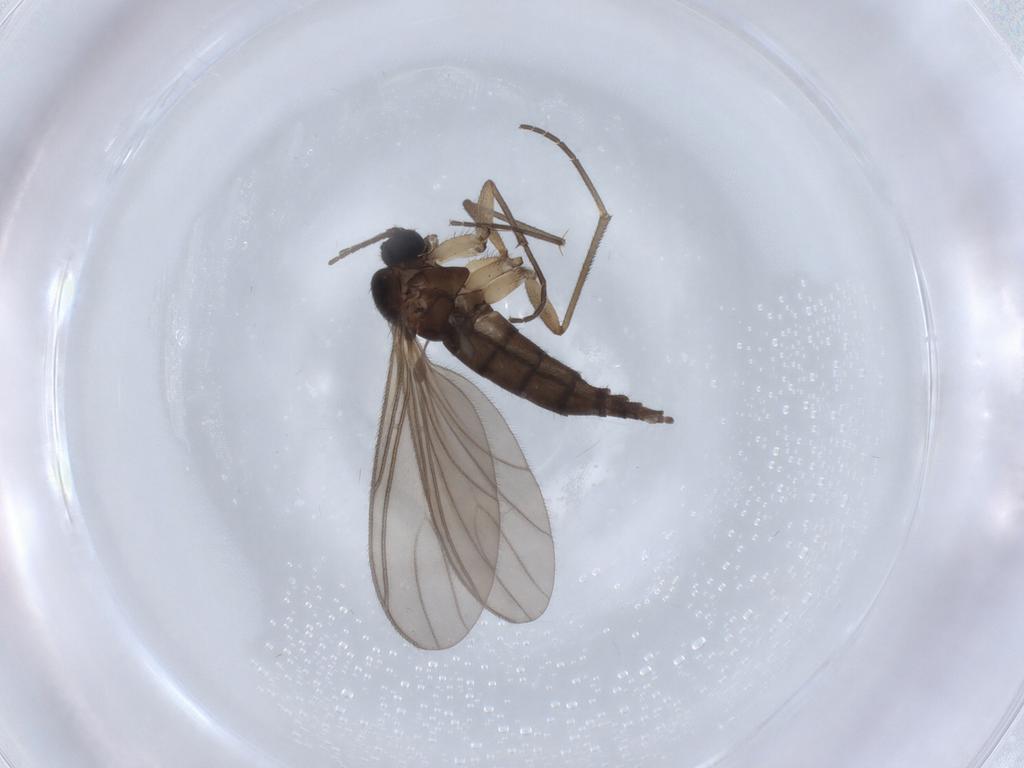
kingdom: Animalia
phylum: Arthropoda
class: Insecta
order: Diptera
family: Sciaridae
